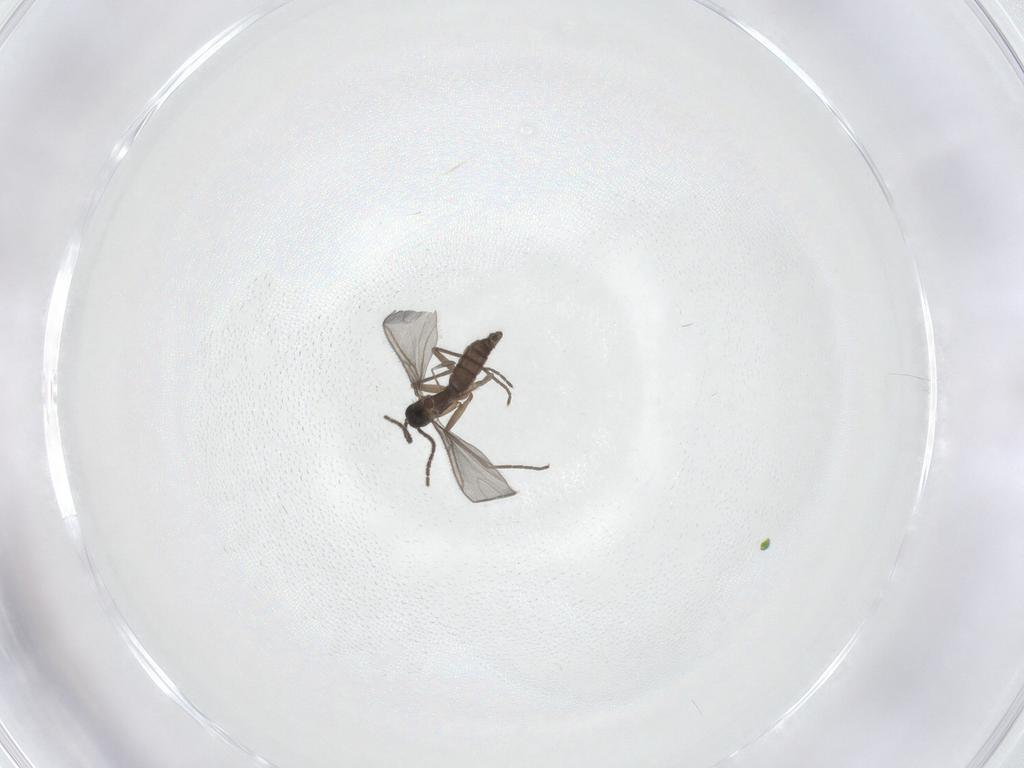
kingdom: Animalia
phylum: Arthropoda
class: Insecta
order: Diptera
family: Sciaridae
